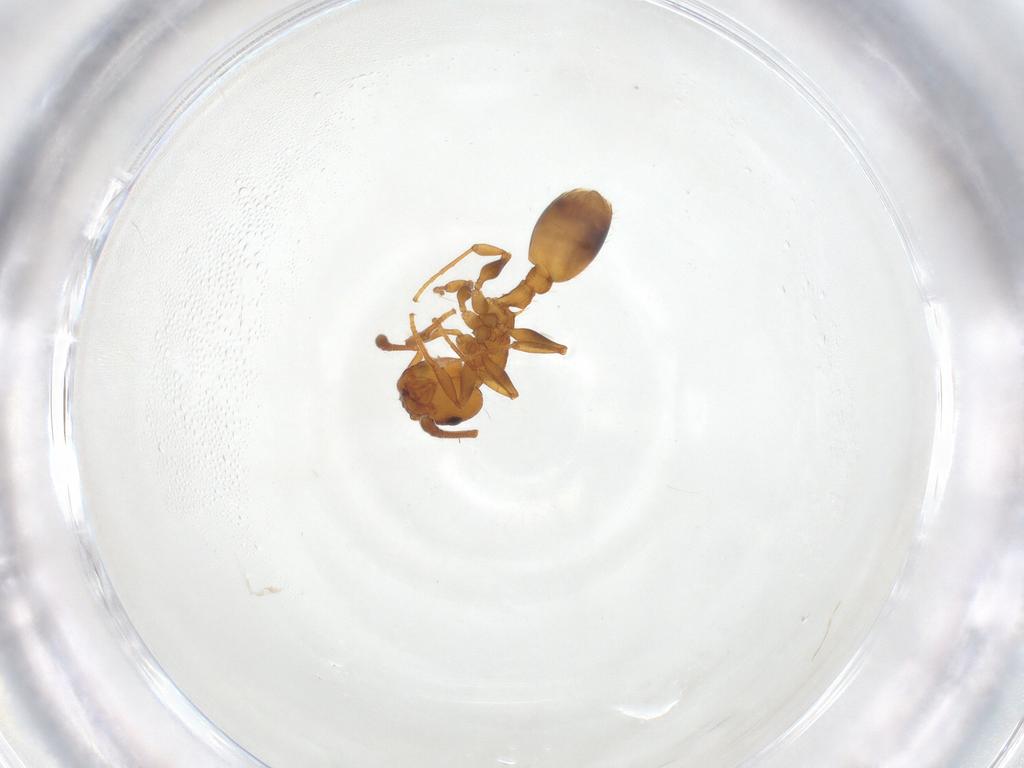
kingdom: Animalia
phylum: Arthropoda
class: Insecta
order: Hymenoptera
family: Formicidae
